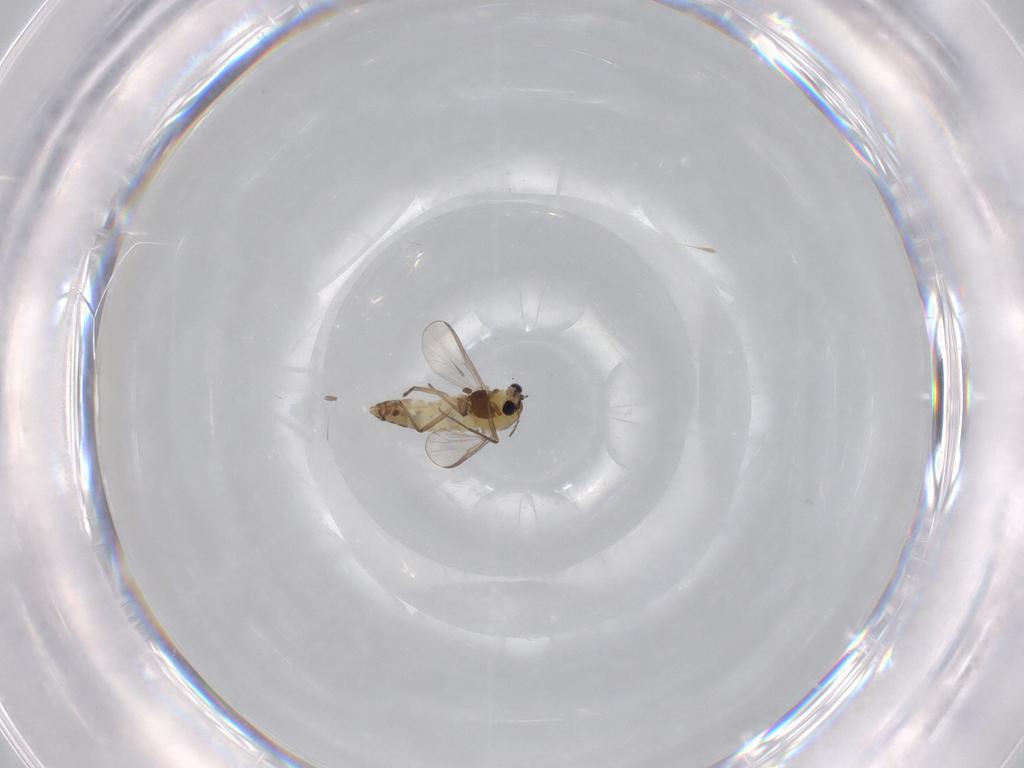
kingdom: Animalia
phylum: Arthropoda
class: Insecta
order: Diptera
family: Chironomidae
